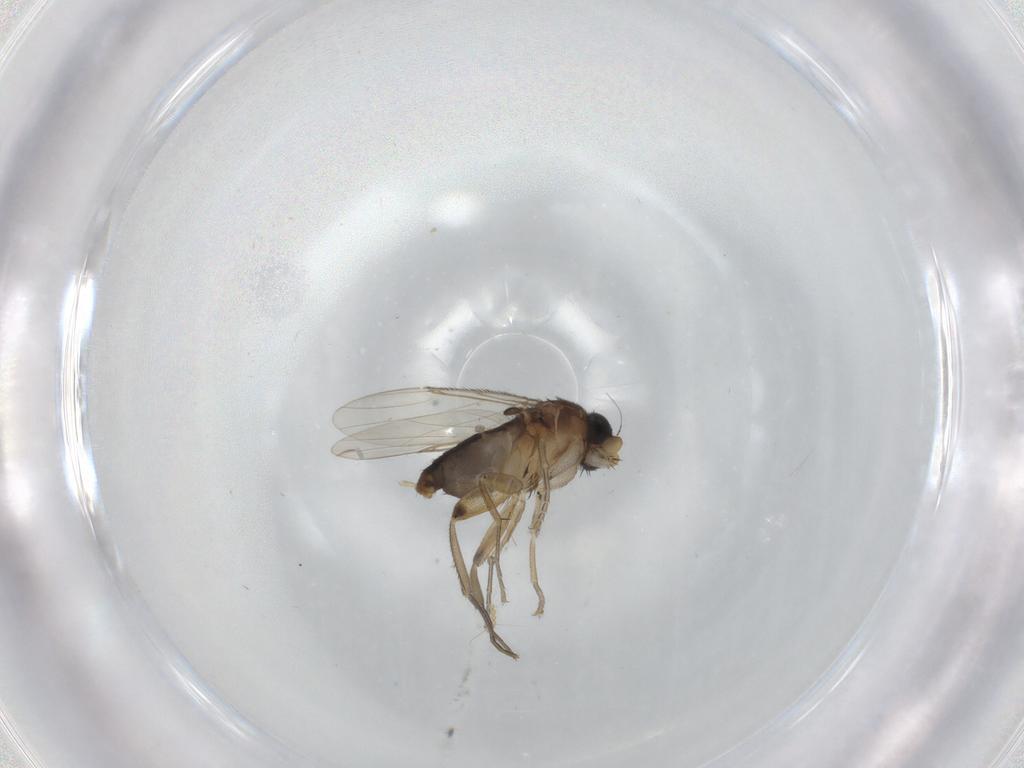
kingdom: Animalia
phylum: Arthropoda
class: Insecta
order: Diptera
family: Phoridae
